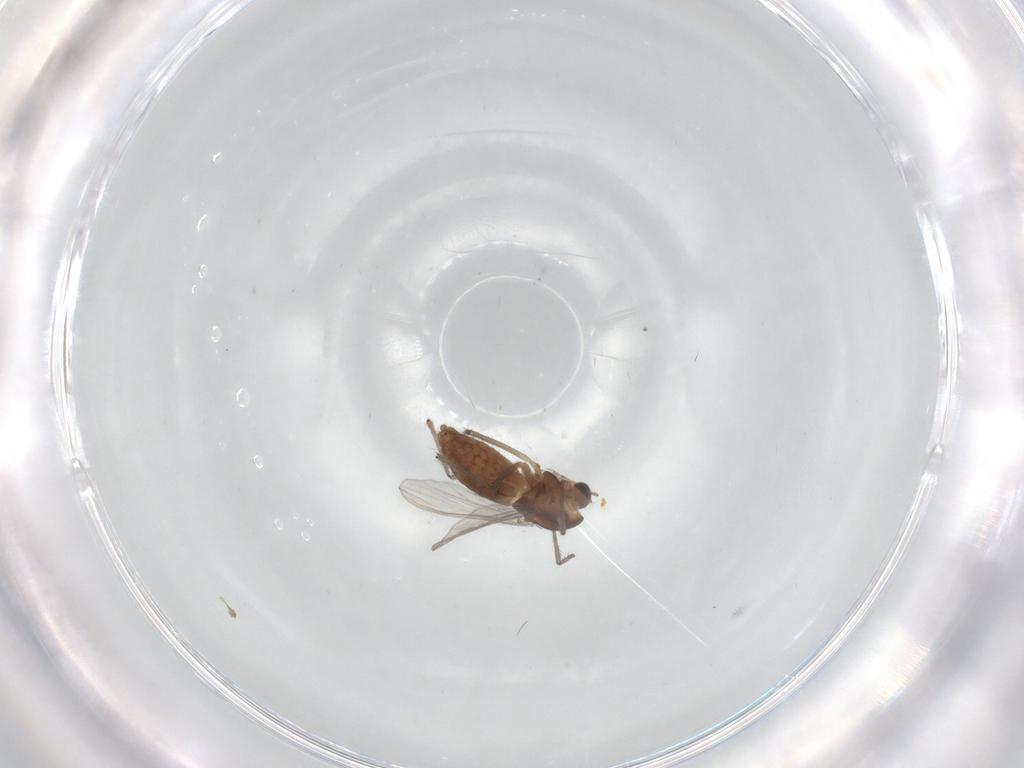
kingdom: Animalia
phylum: Arthropoda
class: Insecta
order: Diptera
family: Chironomidae
